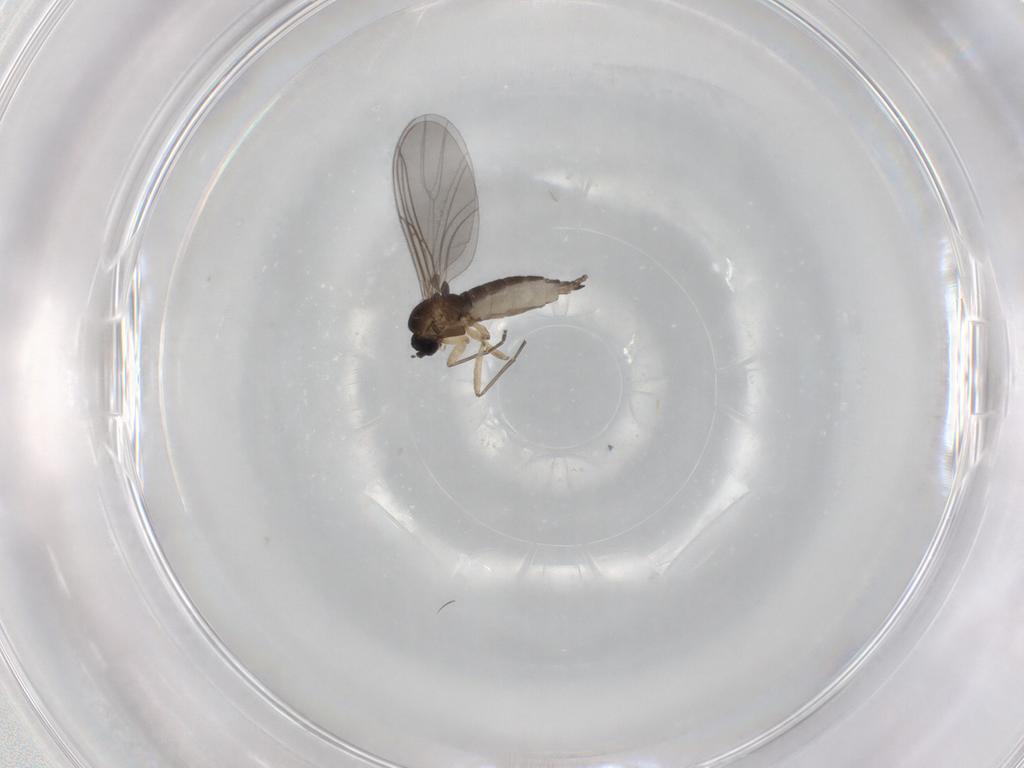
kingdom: Animalia
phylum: Arthropoda
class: Insecta
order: Diptera
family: Sciaridae
